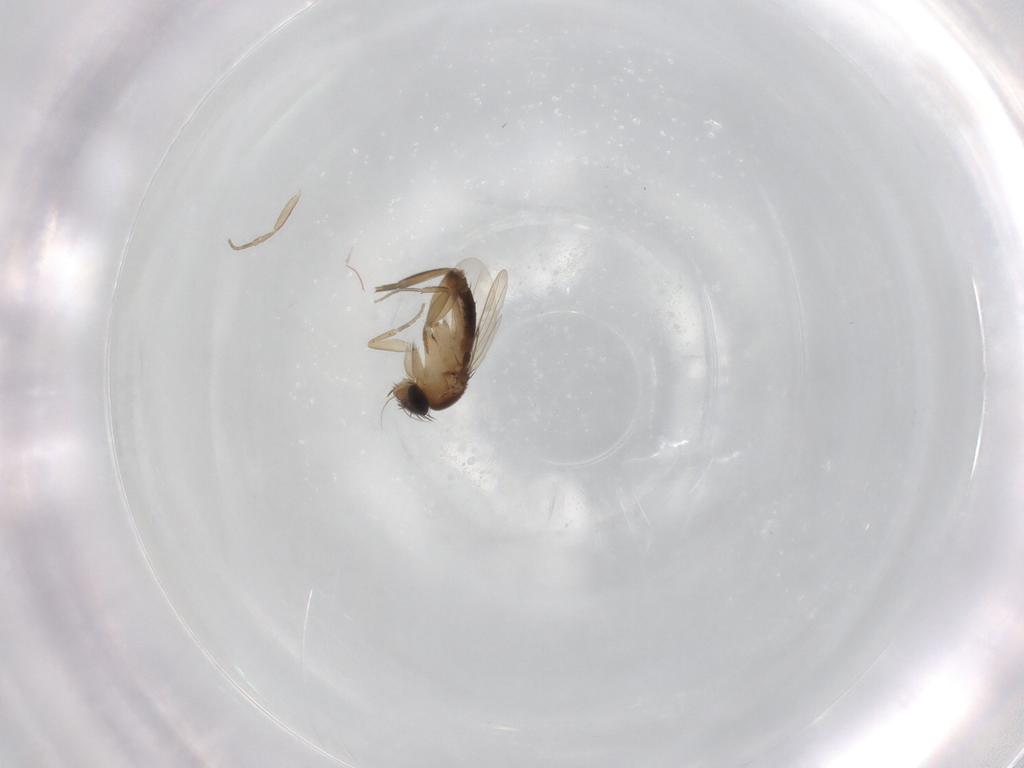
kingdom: Animalia
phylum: Arthropoda
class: Insecta
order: Diptera
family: Phoridae
